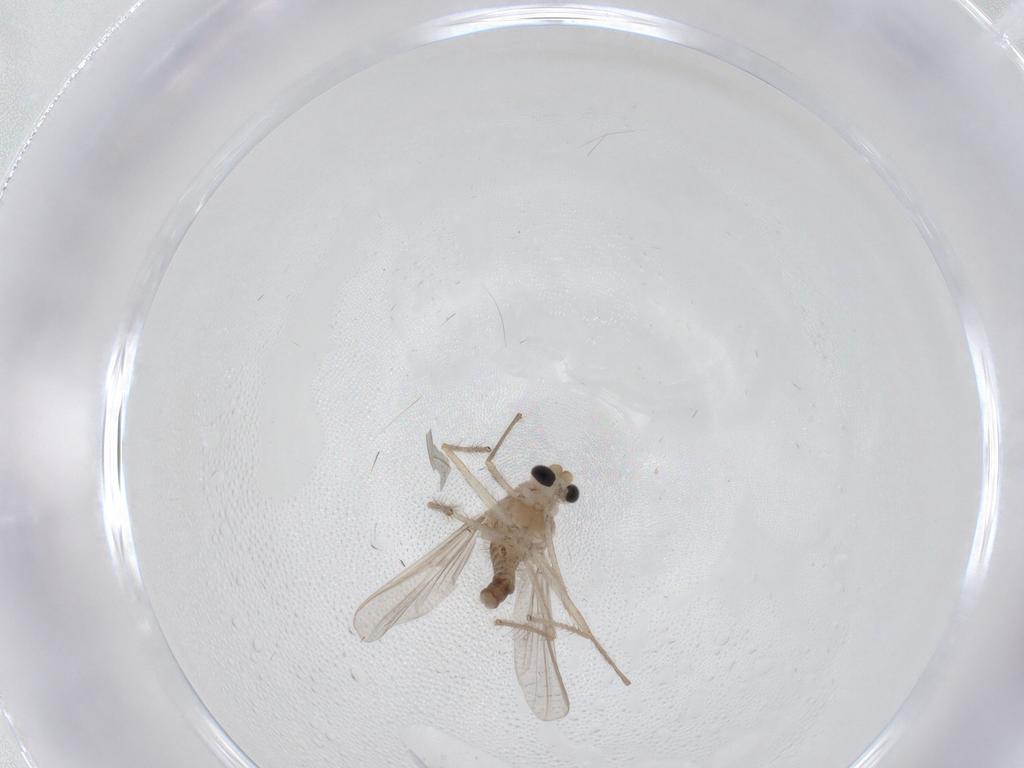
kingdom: Animalia
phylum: Arthropoda
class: Insecta
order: Diptera
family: Chironomidae
